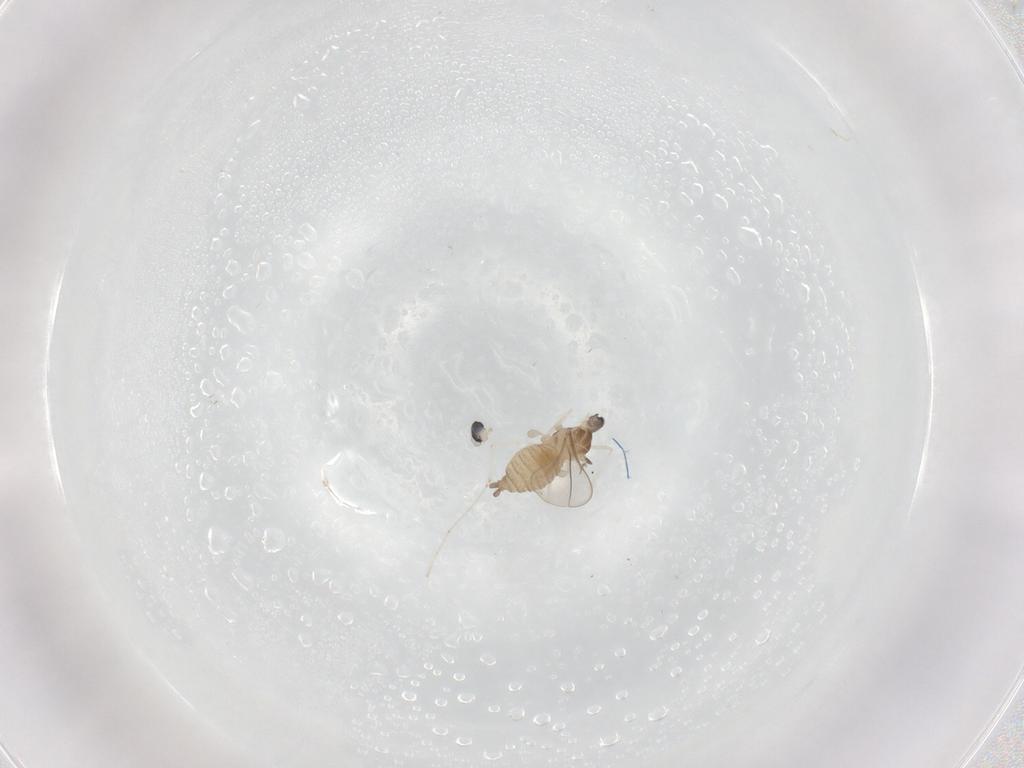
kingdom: Animalia
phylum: Arthropoda
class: Insecta
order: Diptera
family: Cecidomyiidae
